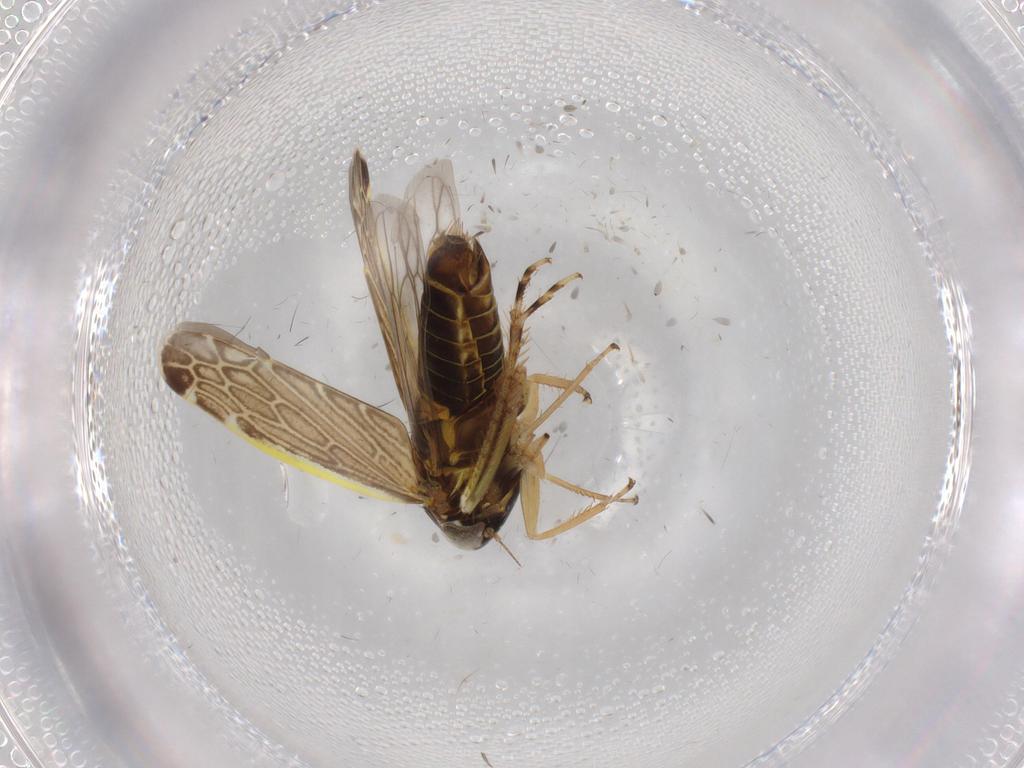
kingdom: Animalia
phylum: Arthropoda
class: Insecta
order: Hemiptera
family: Cicadellidae
